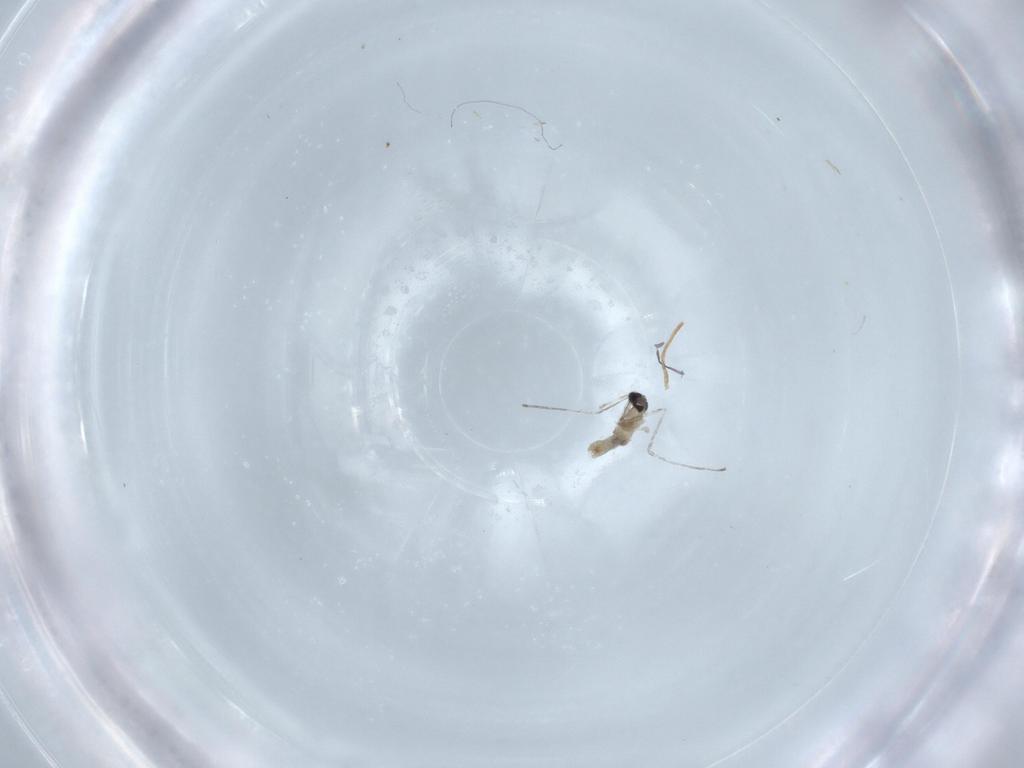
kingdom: Animalia
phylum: Arthropoda
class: Insecta
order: Diptera
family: Cecidomyiidae
